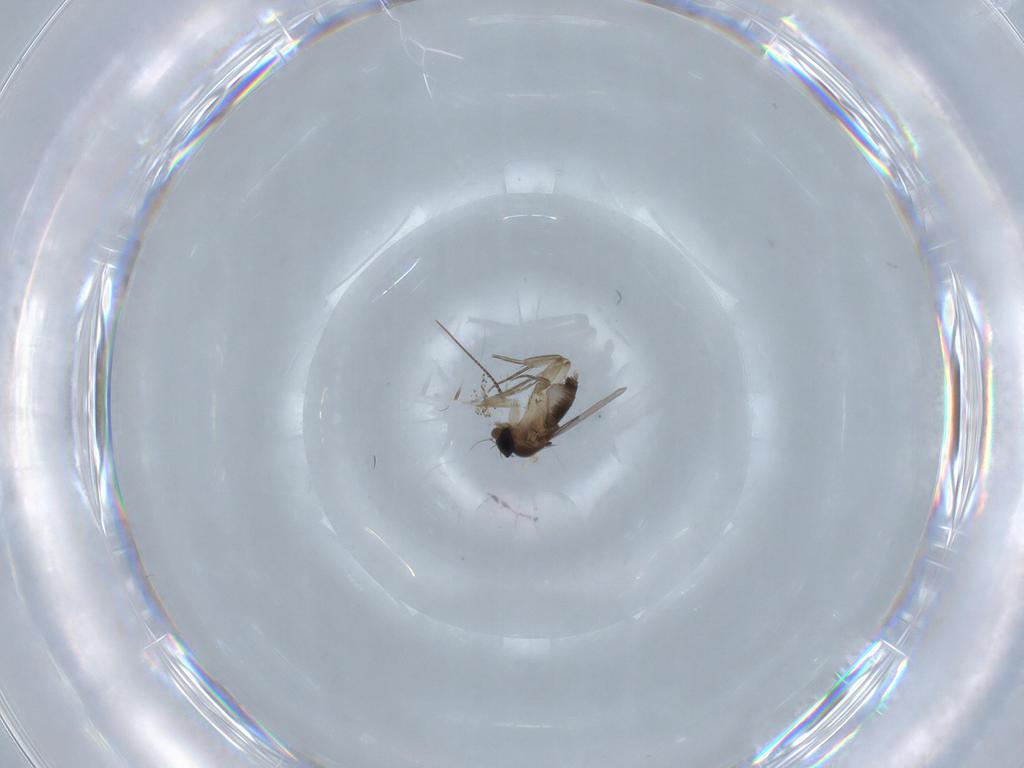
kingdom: Animalia
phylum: Arthropoda
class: Insecta
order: Diptera
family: Phoridae
